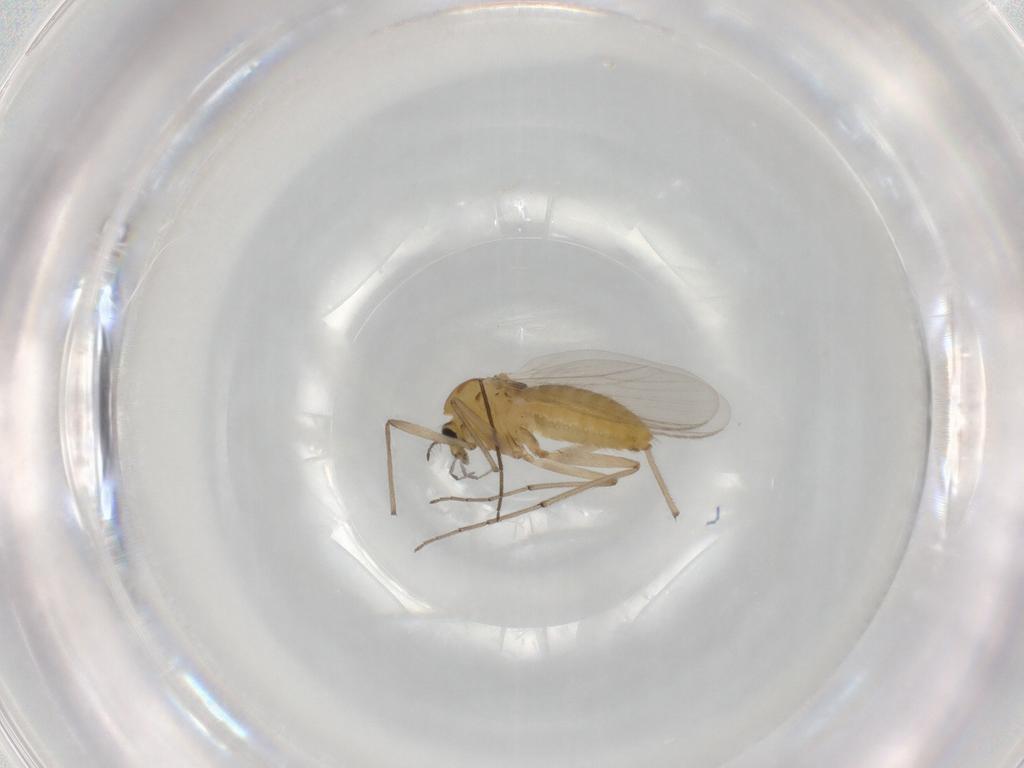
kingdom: Animalia
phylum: Arthropoda
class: Insecta
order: Diptera
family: Chironomidae
